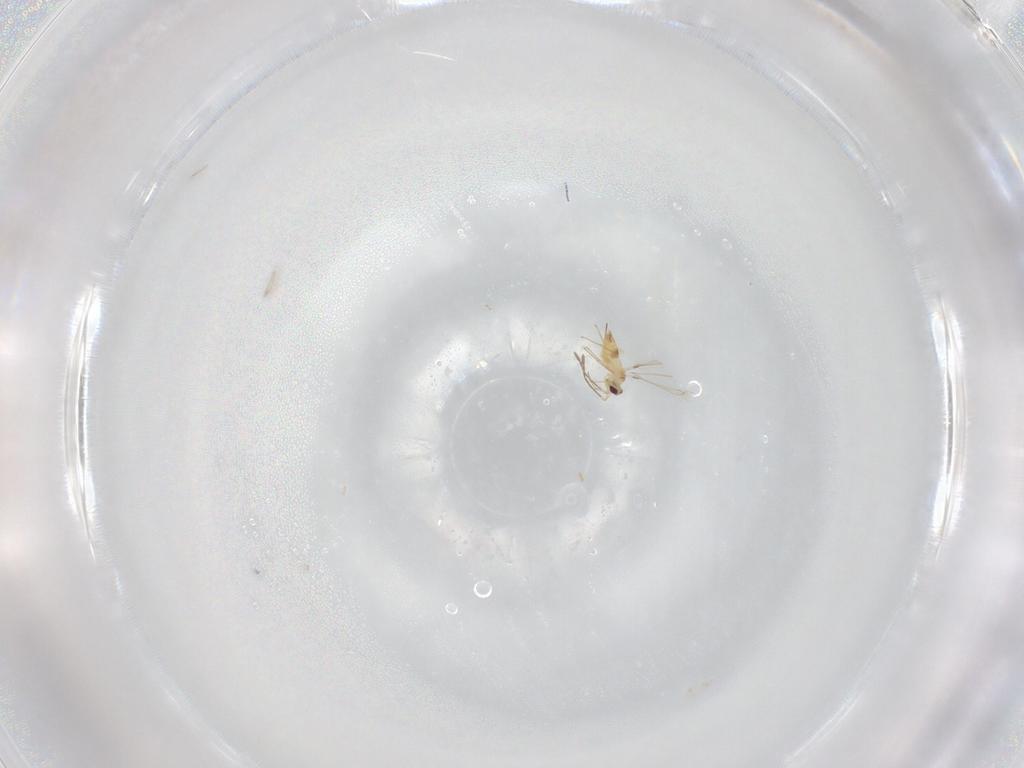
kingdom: Animalia
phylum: Arthropoda
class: Insecta
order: Hymenoptera
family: Mymaridae
